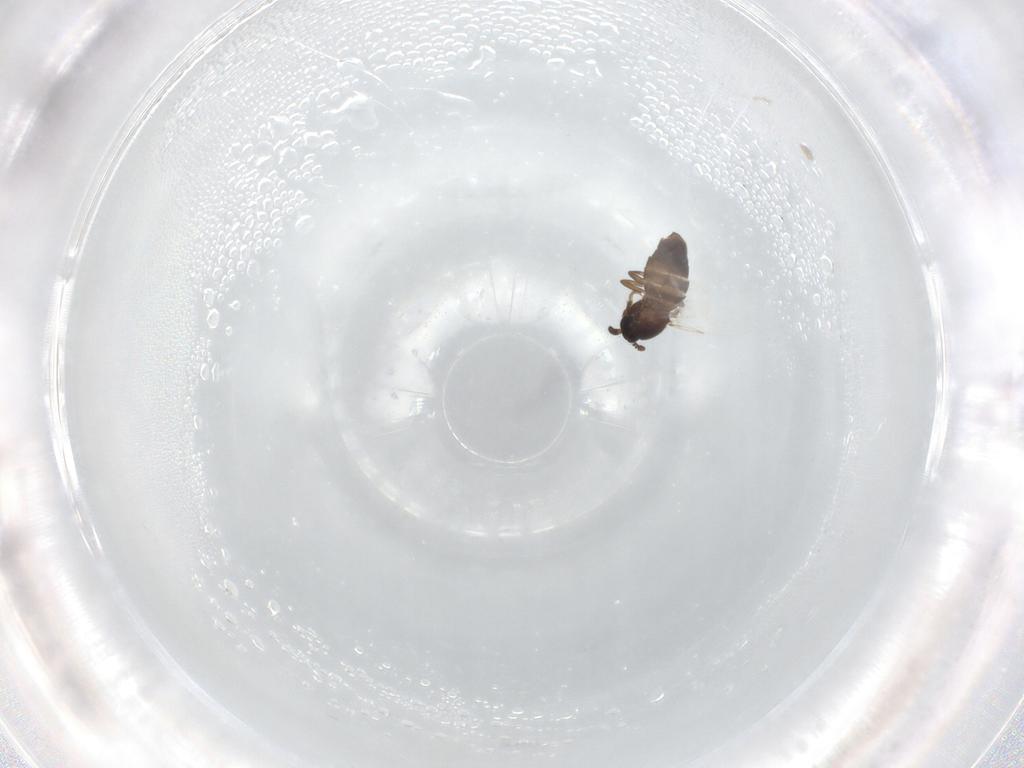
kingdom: Animalia
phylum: Arthropoda
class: Insecta
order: Diptera
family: Scatopsidae
